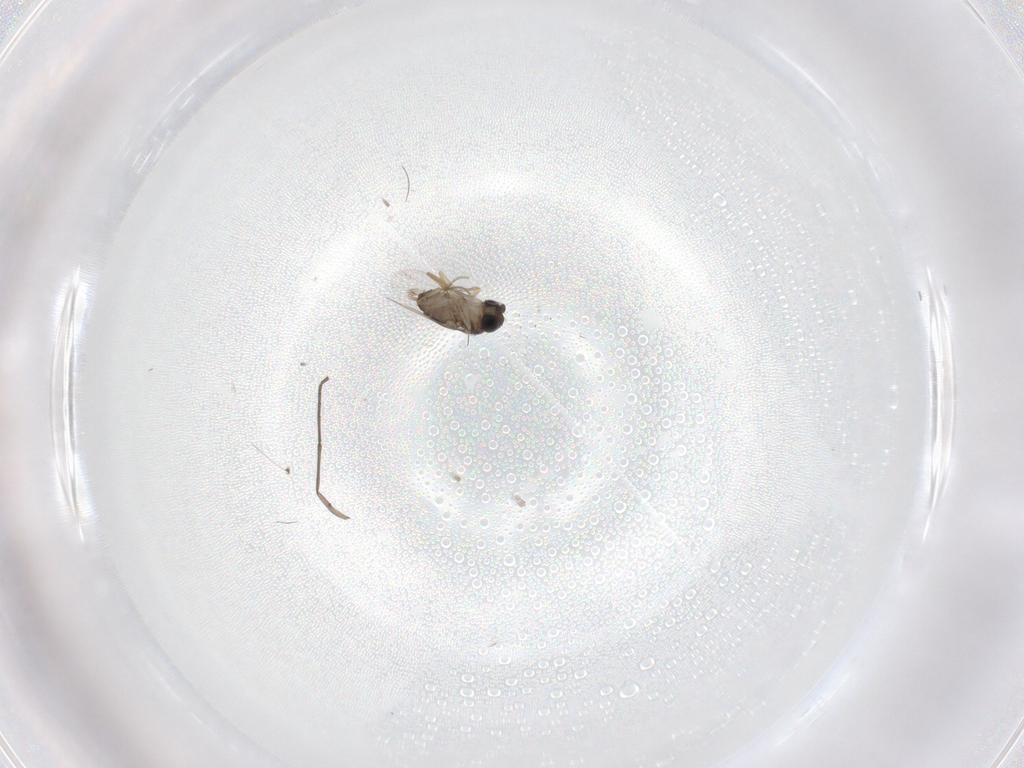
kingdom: Animalia
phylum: Arthropoda
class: Insecta
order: Diptera
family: Phoridae
